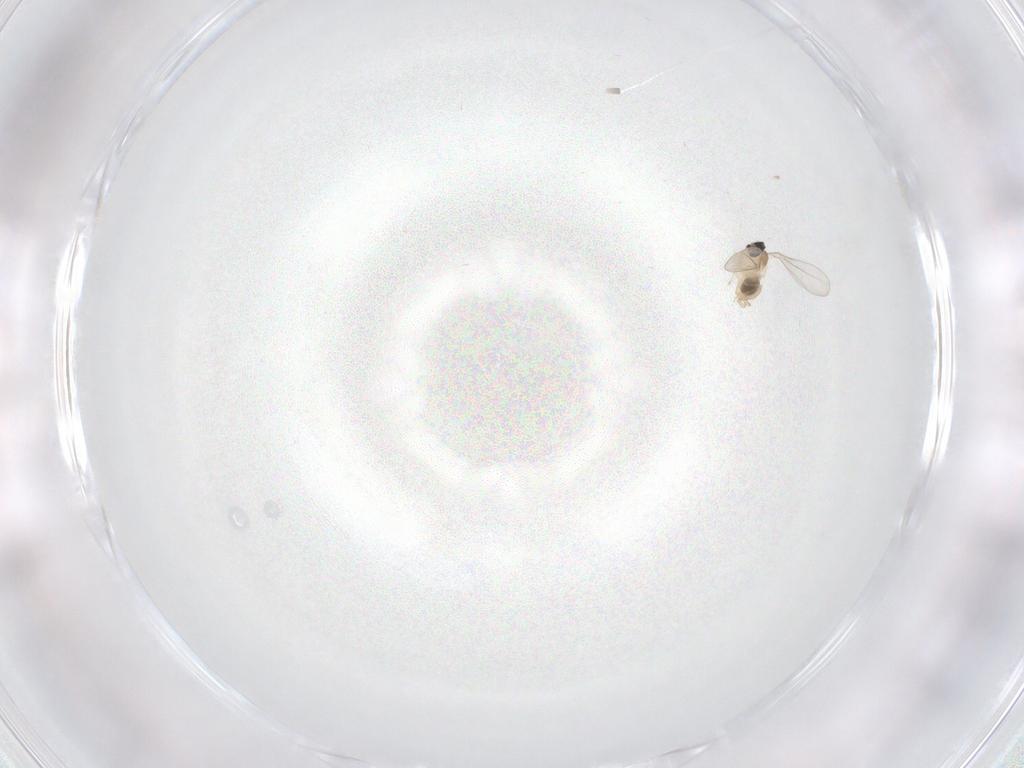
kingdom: Animalia
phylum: Arthropoda
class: Insecta
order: Diptera
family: Cecidomyiidae
